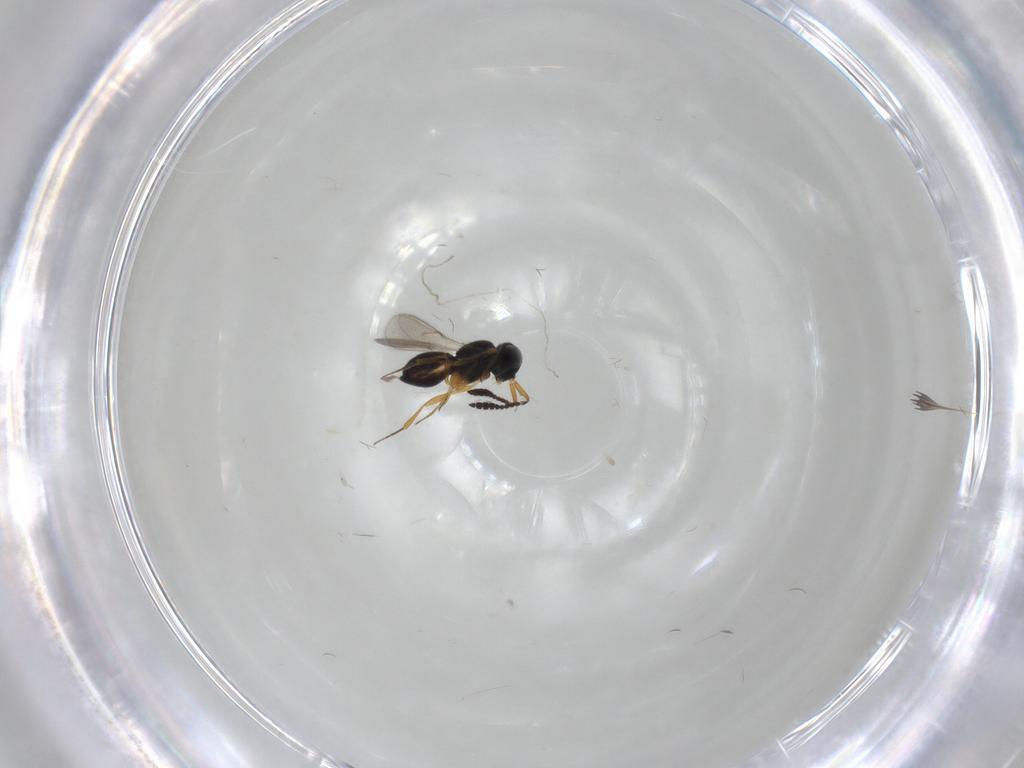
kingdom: Animalia
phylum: Arthropoda
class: Insecta
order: Hymenoptera
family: Scelionidae
